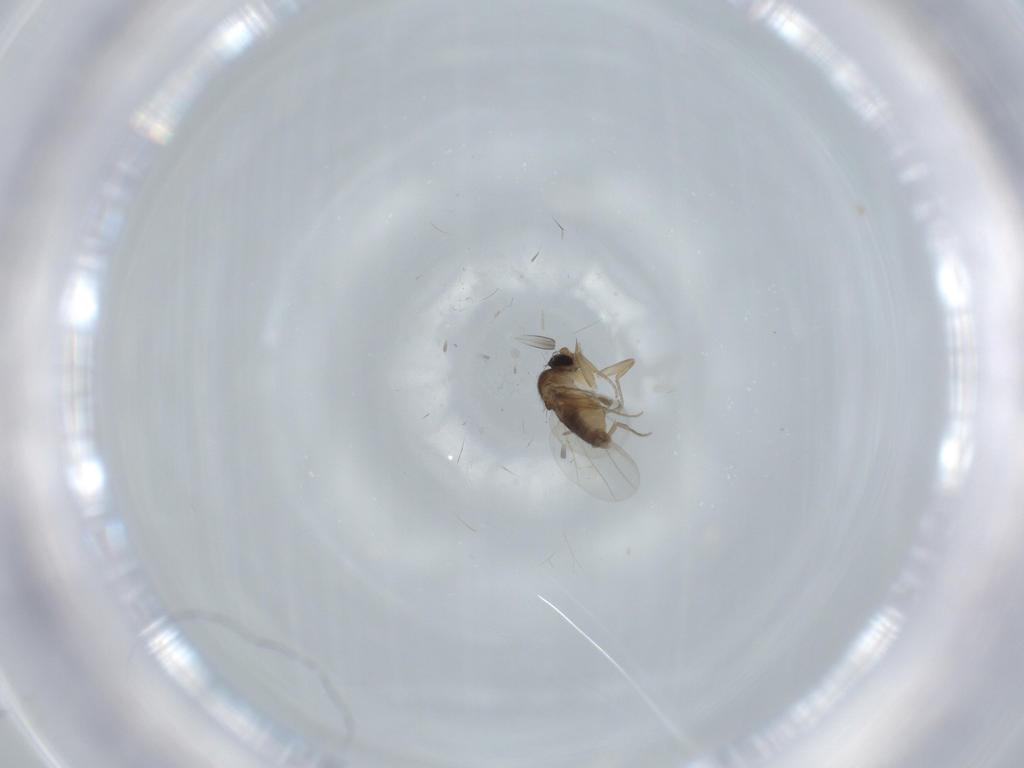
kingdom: Animalia
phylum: Arthropoda
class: Insecta
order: Diptera
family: Phoridae
